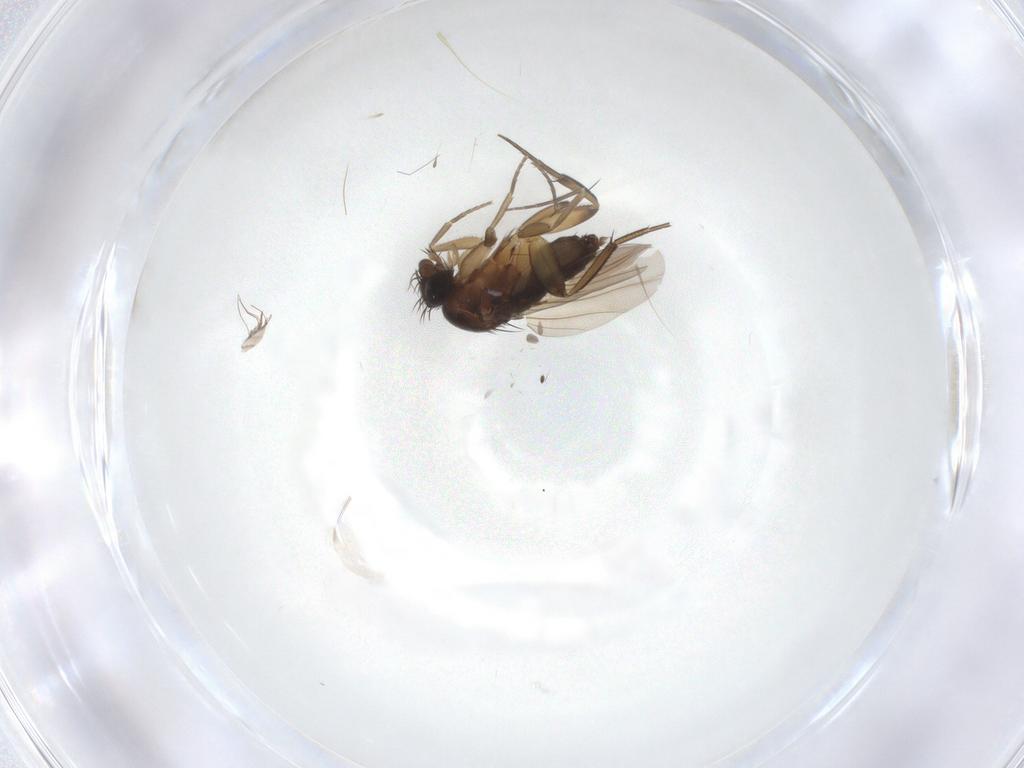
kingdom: Animalia
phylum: Arthropoda
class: Insecta
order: Diptera
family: Phoridae
